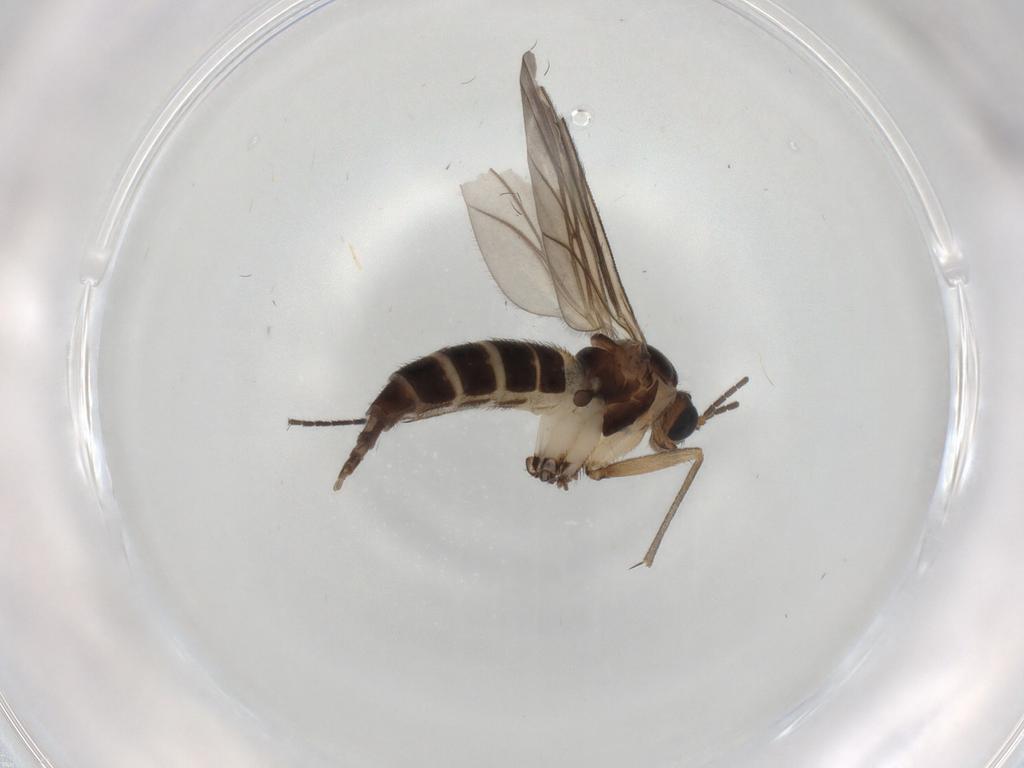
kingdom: Animalia
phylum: Arthropoda
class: Insecta
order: Diptera
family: Sciaridae
